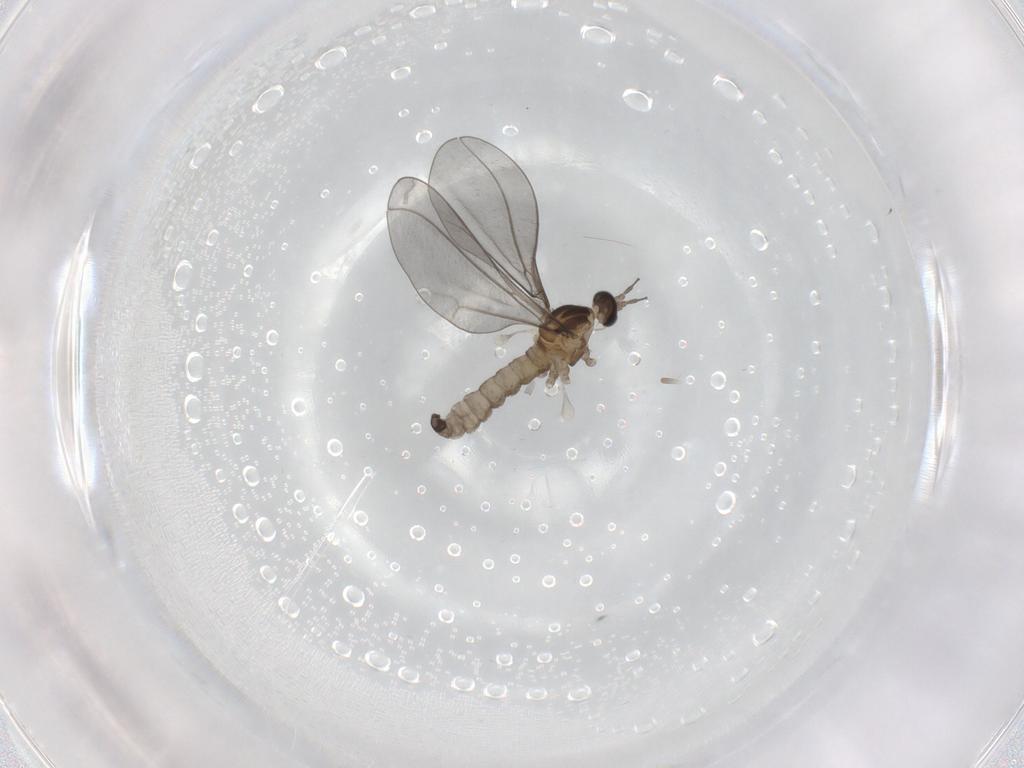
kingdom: Animalia
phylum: Arthropoda
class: Insecta
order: Diptera
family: Cecidomyiidae
